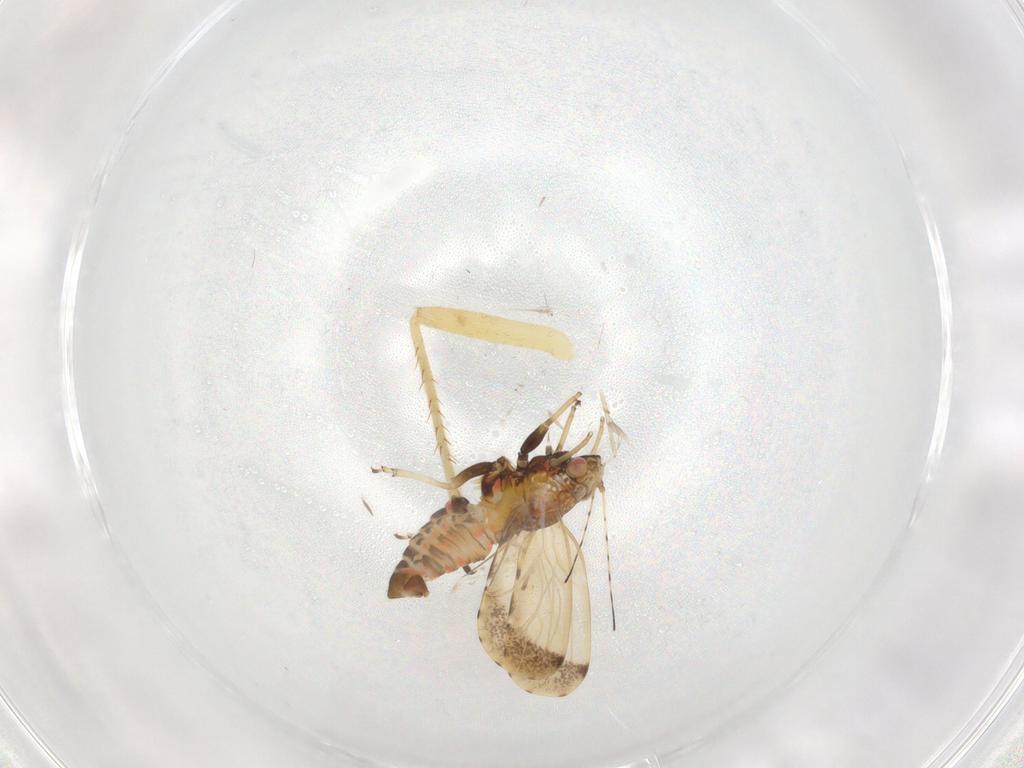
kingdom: Animalia
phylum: Arthropoda
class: Insecta
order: Hemiptera
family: Psyllidae
